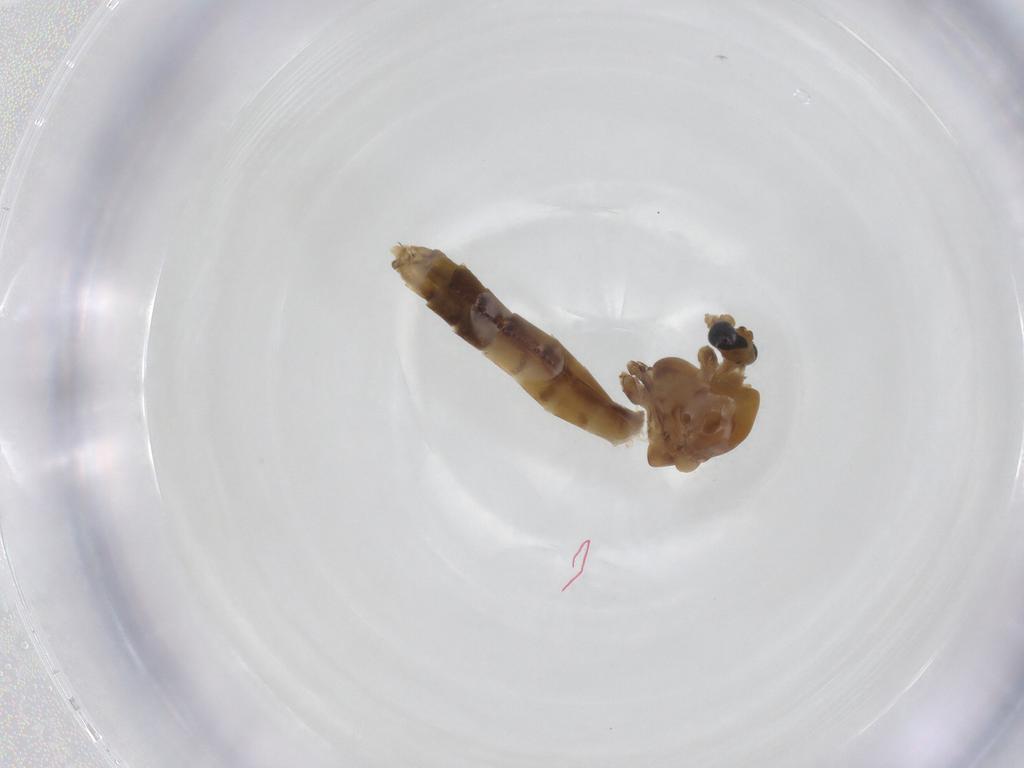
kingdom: Animalia
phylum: Arthropoda
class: Insecta
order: Diptera
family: Chironomidae
